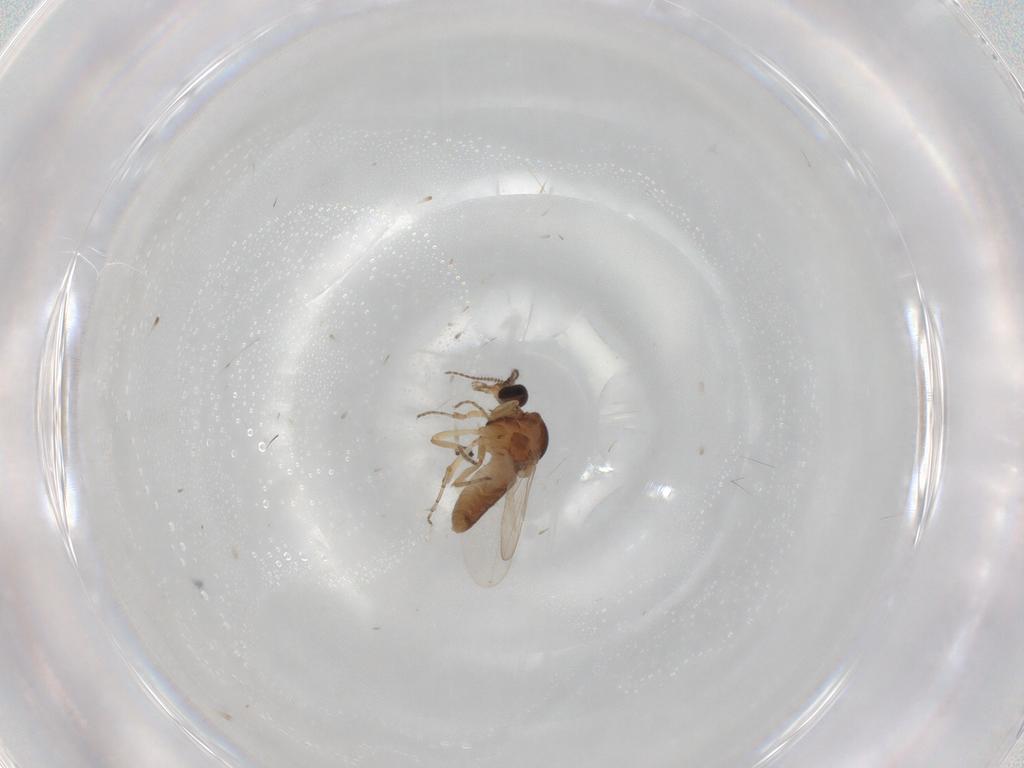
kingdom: Animalia
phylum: Arthropoda
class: Insecta
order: Diptera
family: Ceratopogonidae
